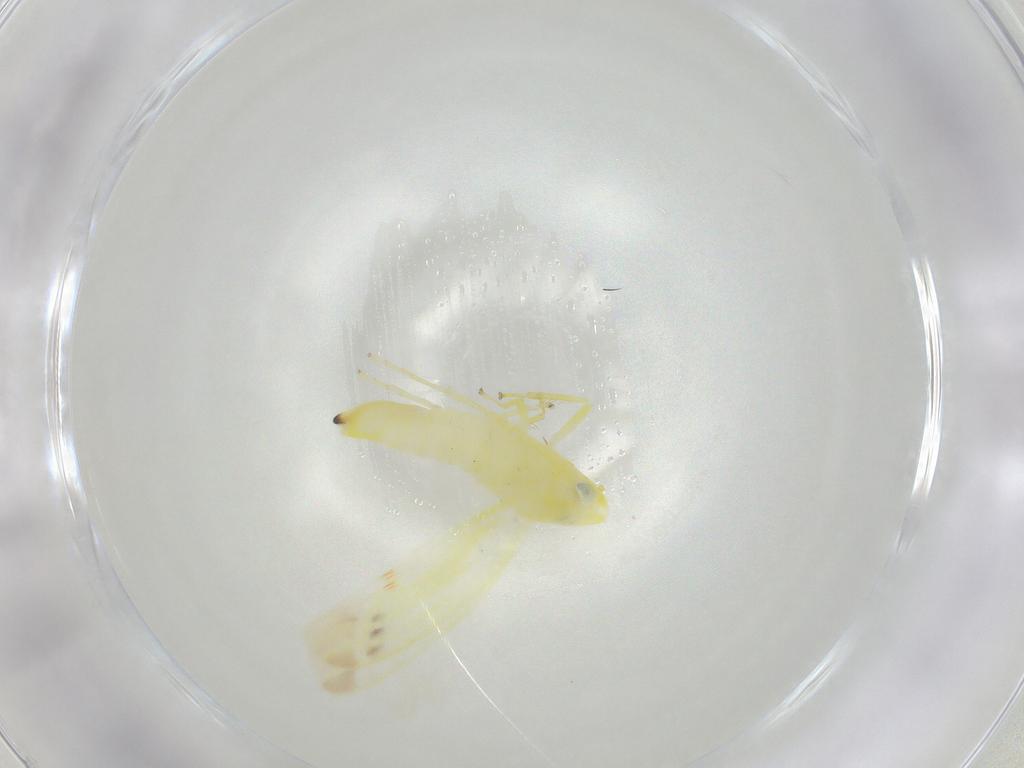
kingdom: Animalia
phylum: Arthropoda
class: Insecta
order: Hemiptera
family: Cicadellidae
